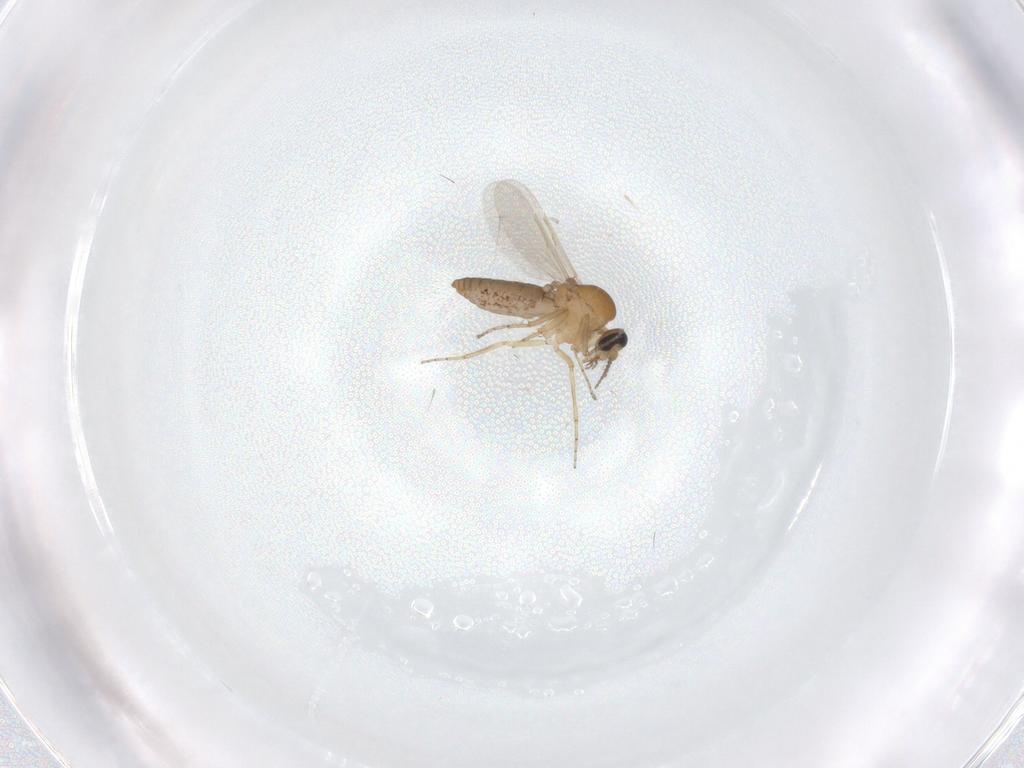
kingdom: Animalia
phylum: Arthropoda
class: Insecta
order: Diptera
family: Ceratopogonidae
